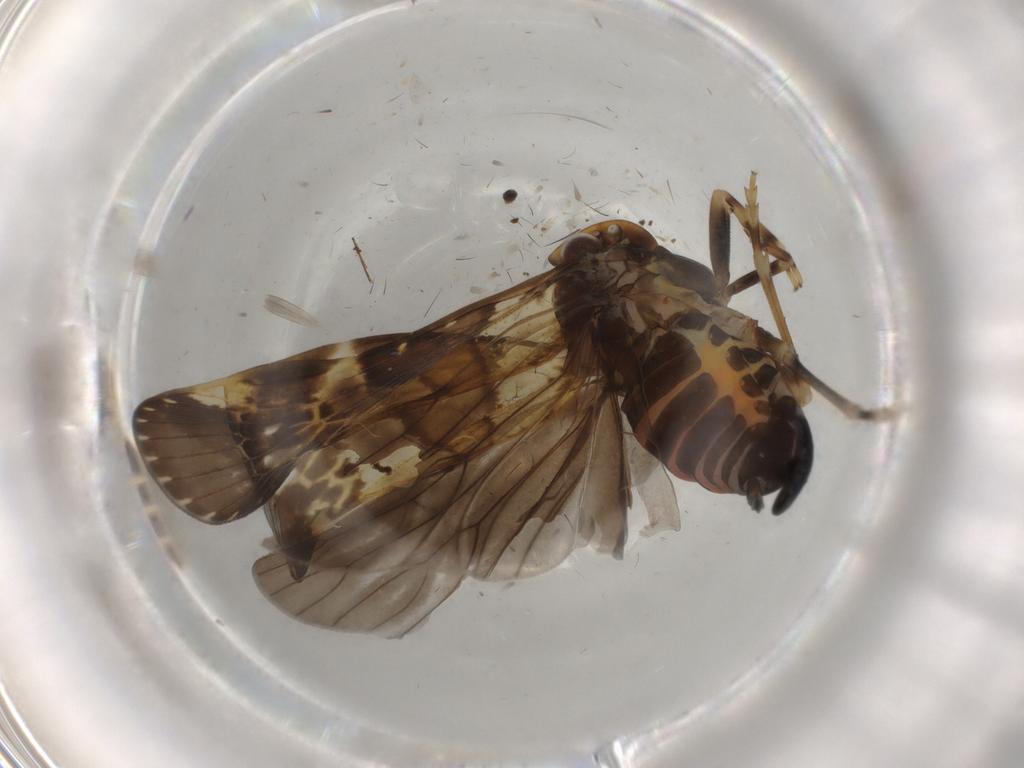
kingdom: Animalia
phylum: Arthropoda
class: Insecta
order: Hemiptera
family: Cixiidae
